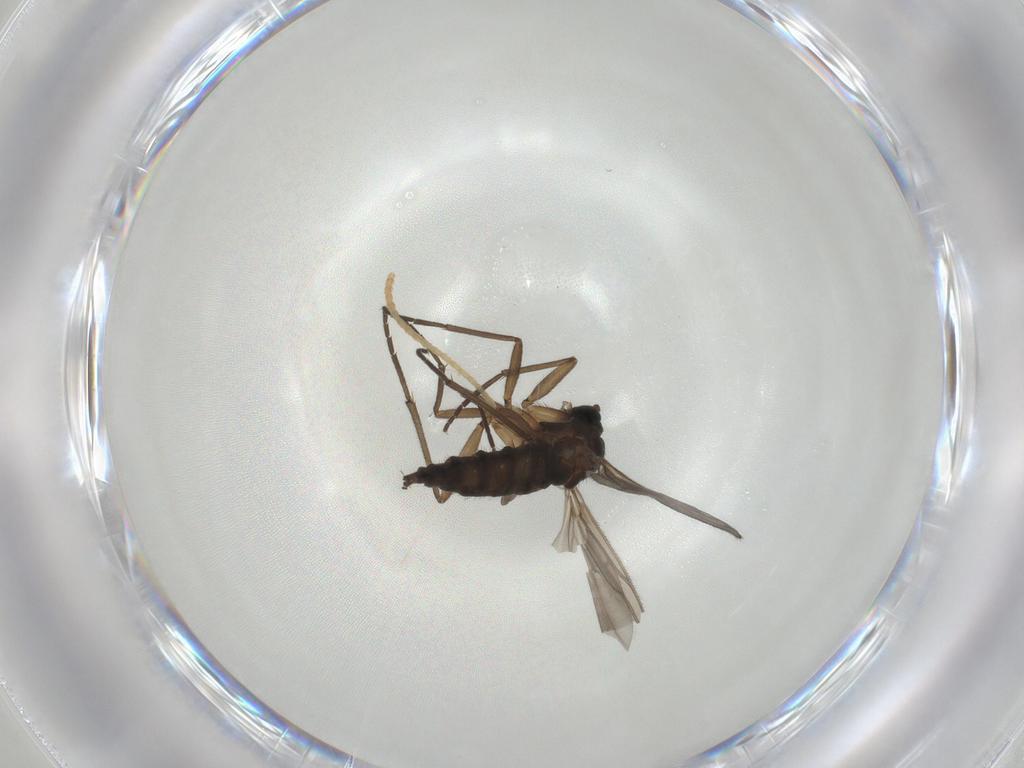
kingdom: Animalia
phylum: Arthropoda
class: Insecta
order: Diptera
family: Sciaridae
